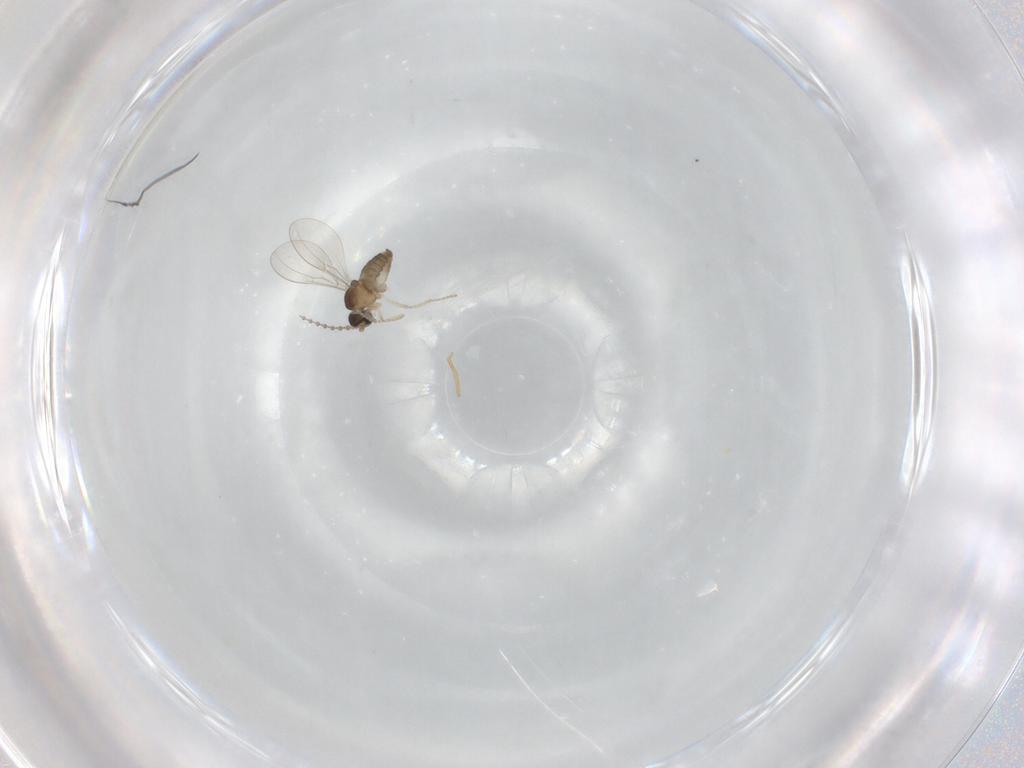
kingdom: Animalia
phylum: Arthropoda
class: Insecta
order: Diptera
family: Cecidomyiidae
